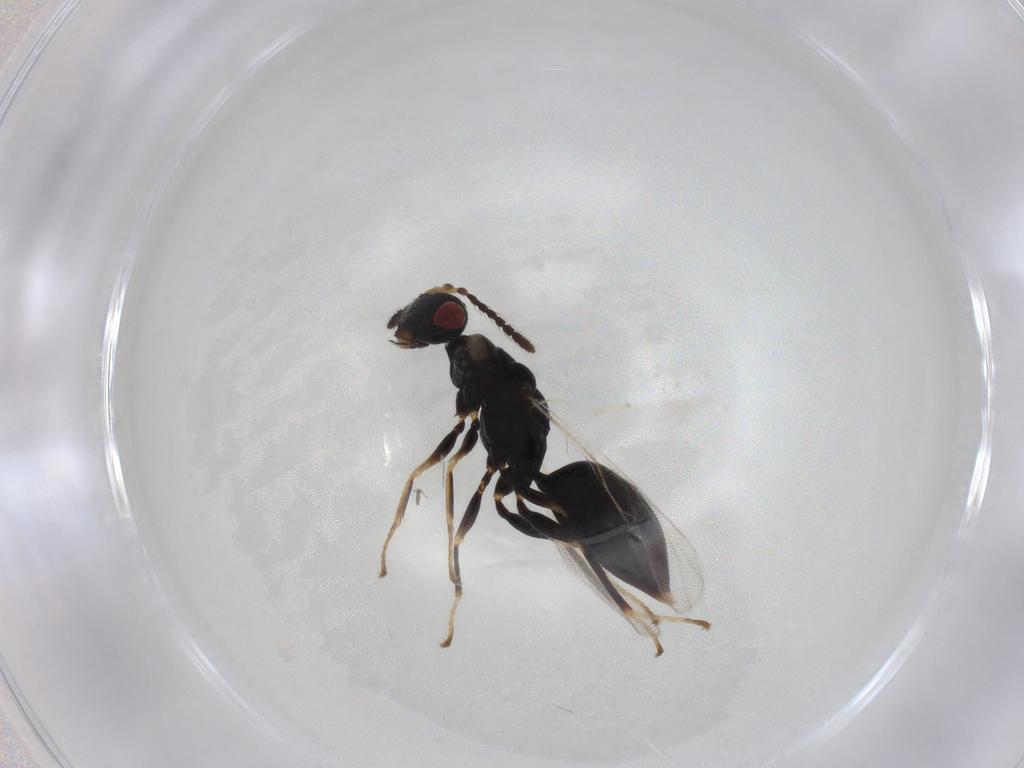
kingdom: Animalia
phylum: Arthropoda
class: Insecta
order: Hymenoptera
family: Eurytomidae
